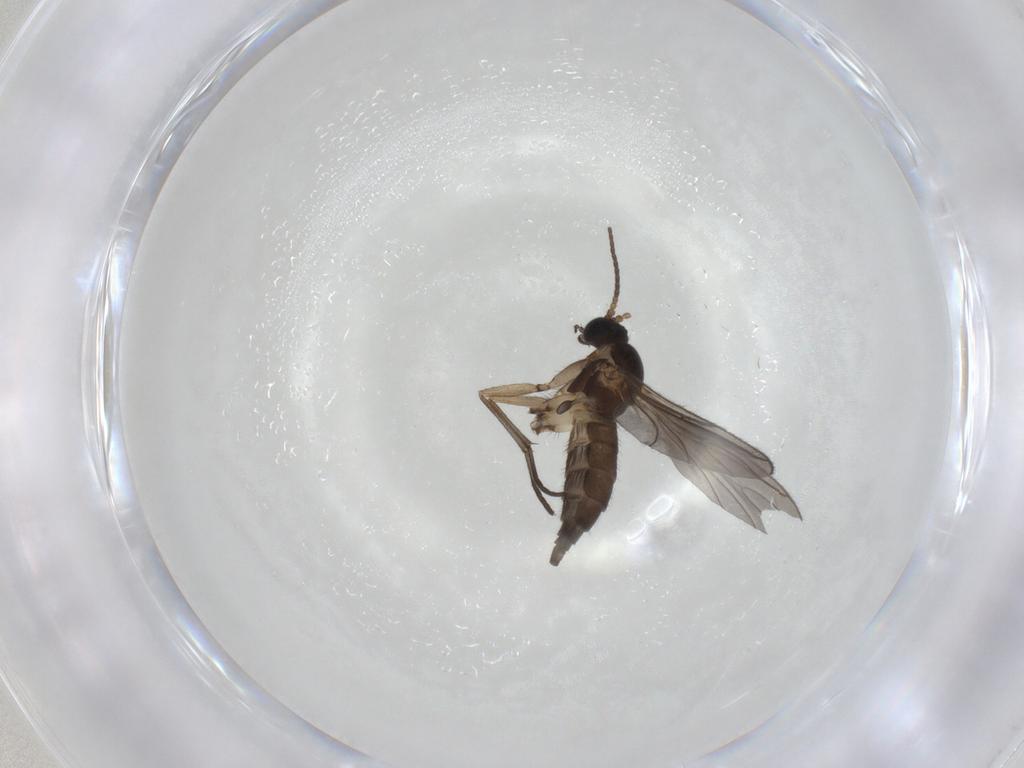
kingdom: Animalia
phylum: Arthropoda
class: Insecta
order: Diptera
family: Sciaridae
